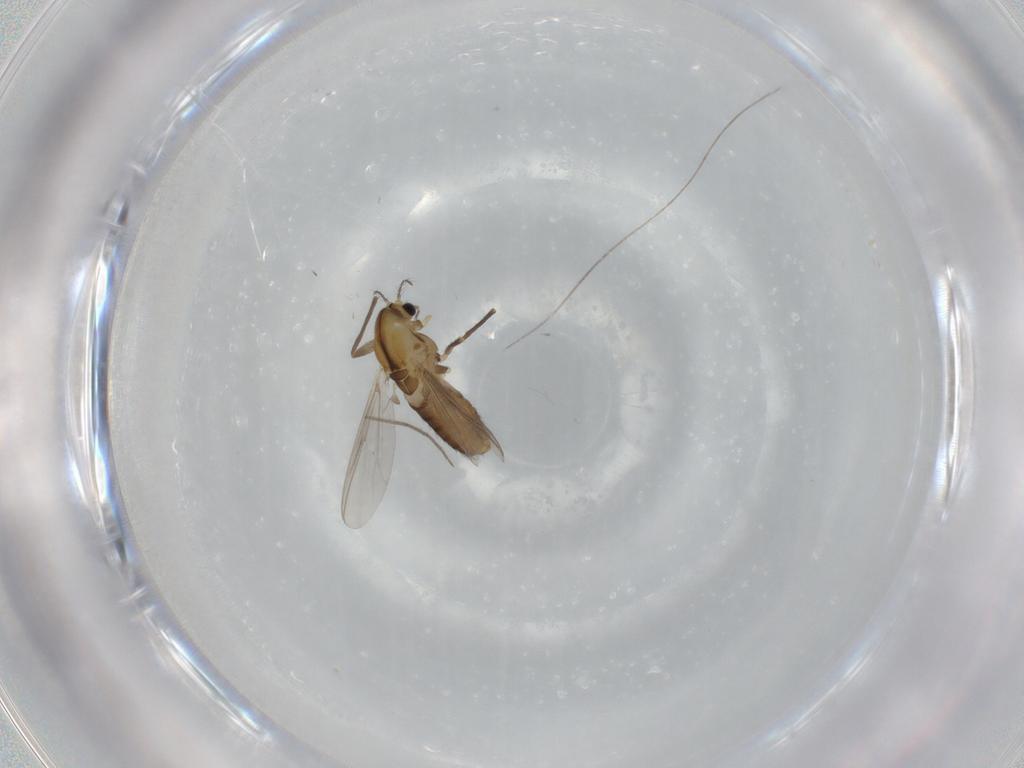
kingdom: Animalia
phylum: Arthropoda
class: Insecta
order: Diptera
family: Chironomidae
